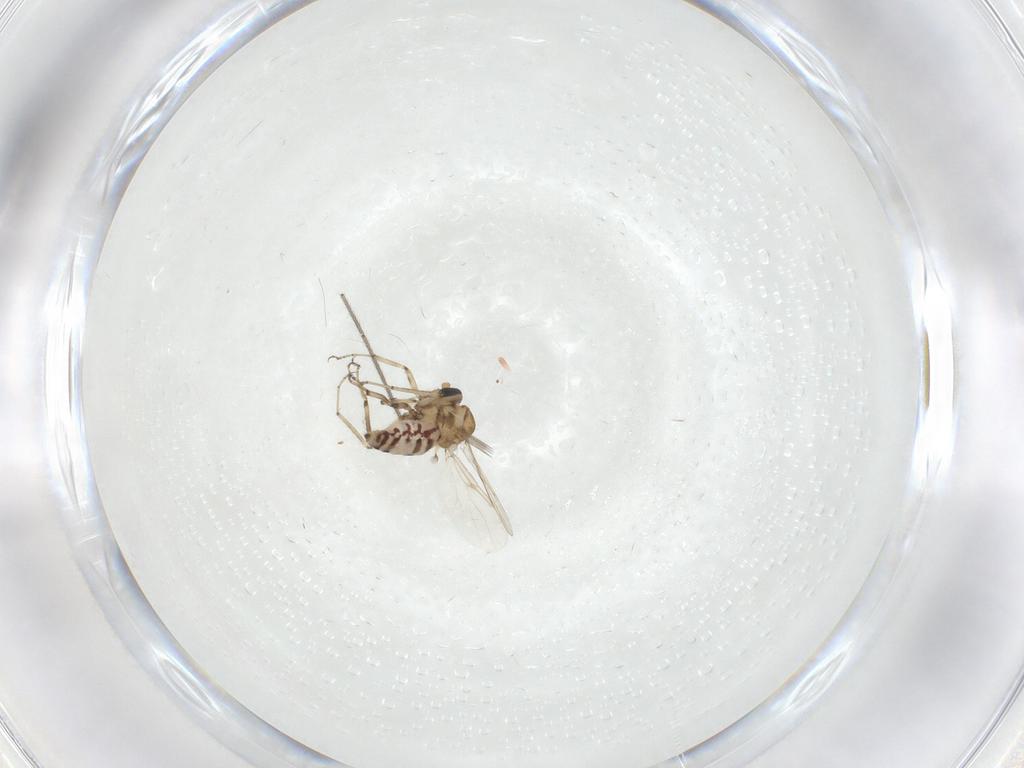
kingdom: Animalia
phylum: Arthropoda
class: Insecta
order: Diptera
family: Ceratopogonidae
